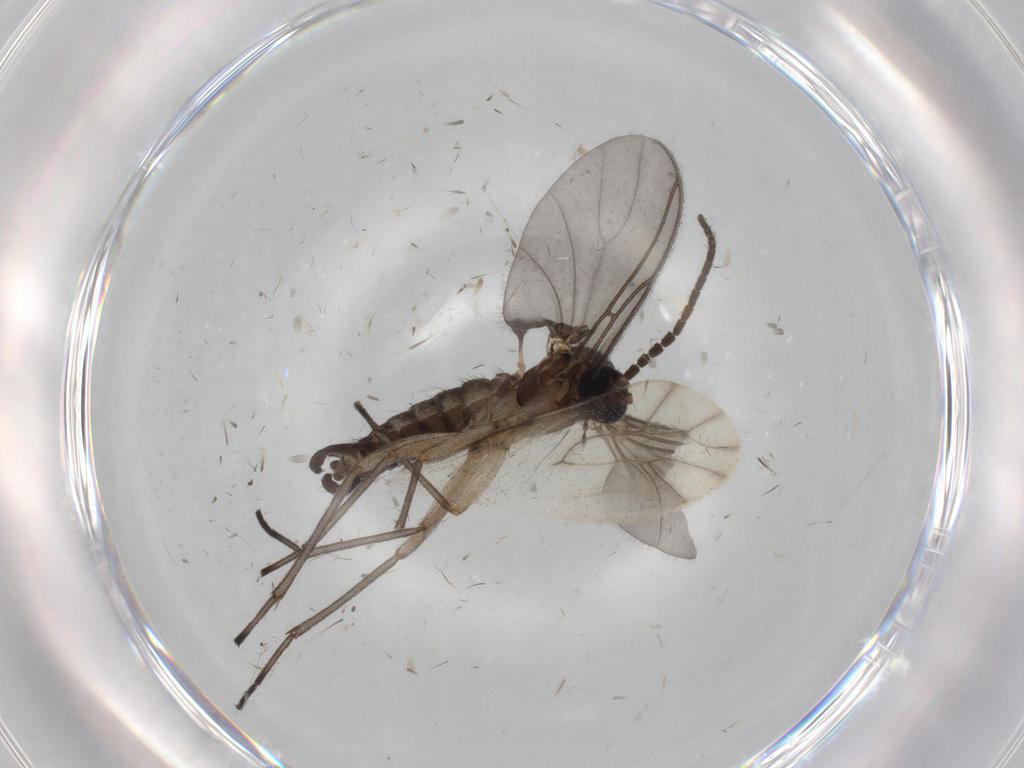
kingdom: Animalia
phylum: Arthropoda
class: Insecta
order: Diptera
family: Sciaridae
